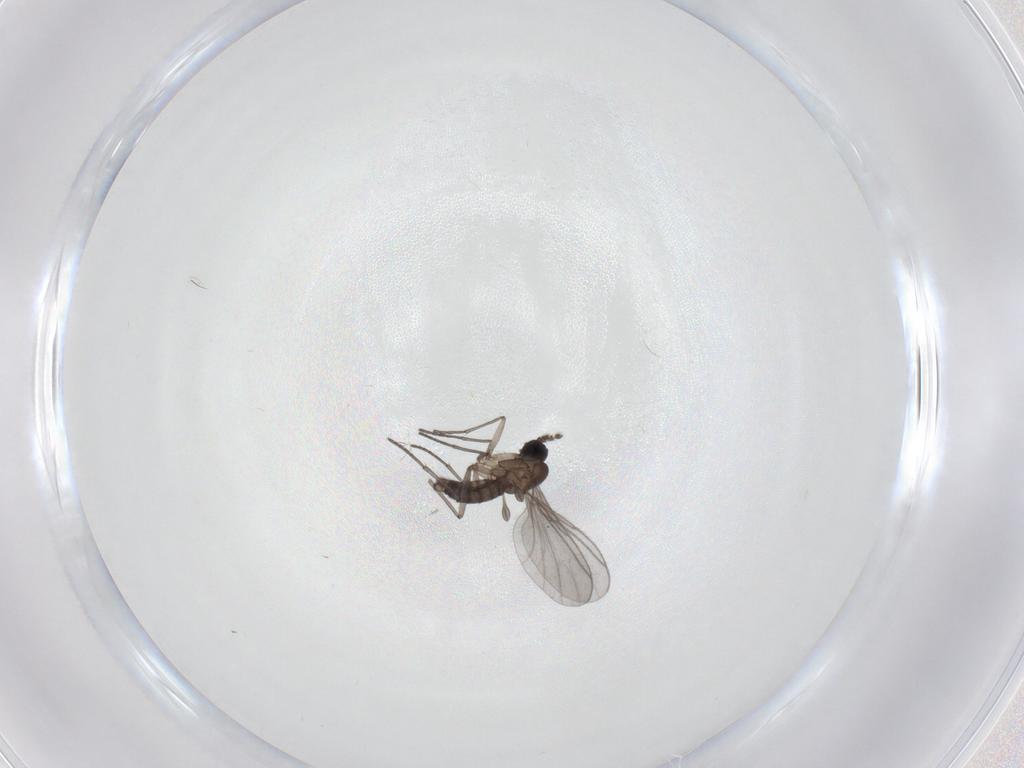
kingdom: Animalia
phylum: Arthropoda
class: Insecta
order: Diptera
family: Sciaridae
